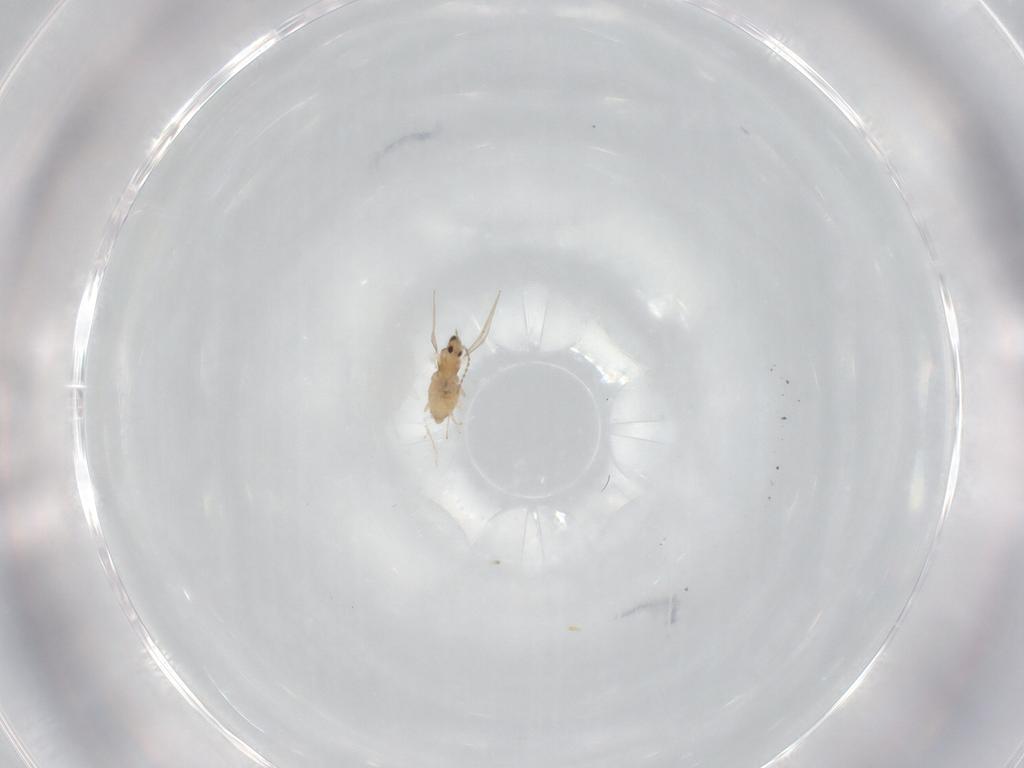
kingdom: Animalia
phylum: Arthropoda
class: Insecta
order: Diptera
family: Cecidomyiidae
